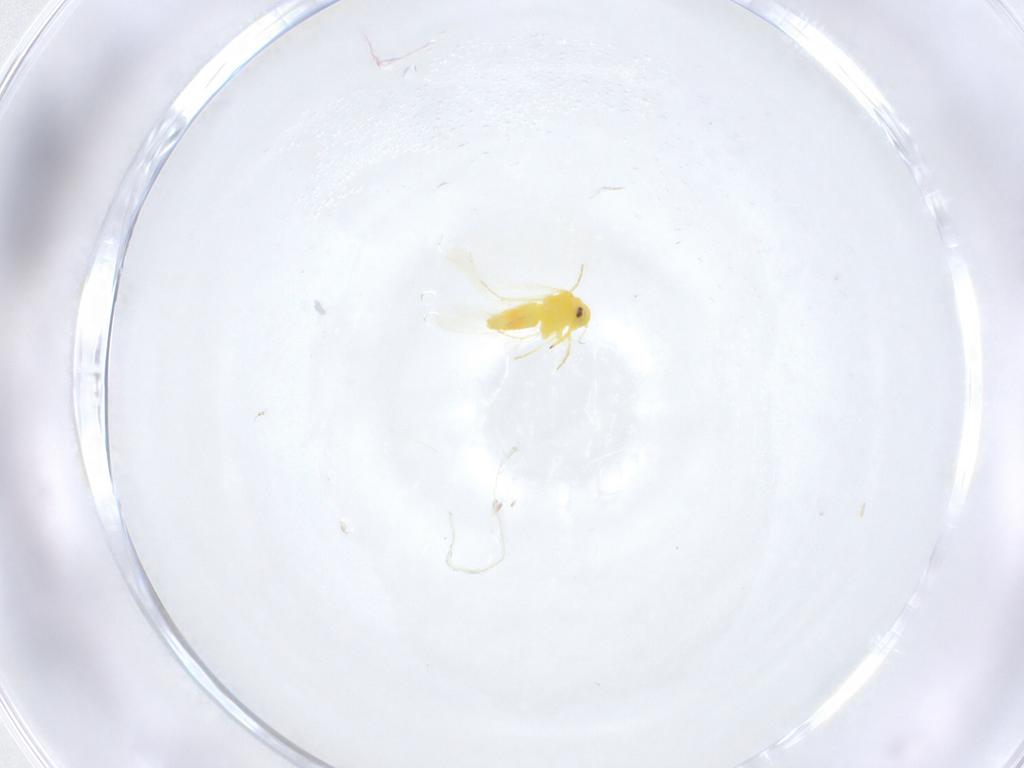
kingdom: Animalia
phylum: Arthropoda
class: Insecta
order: Hemiptera
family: Aleyrodidae
